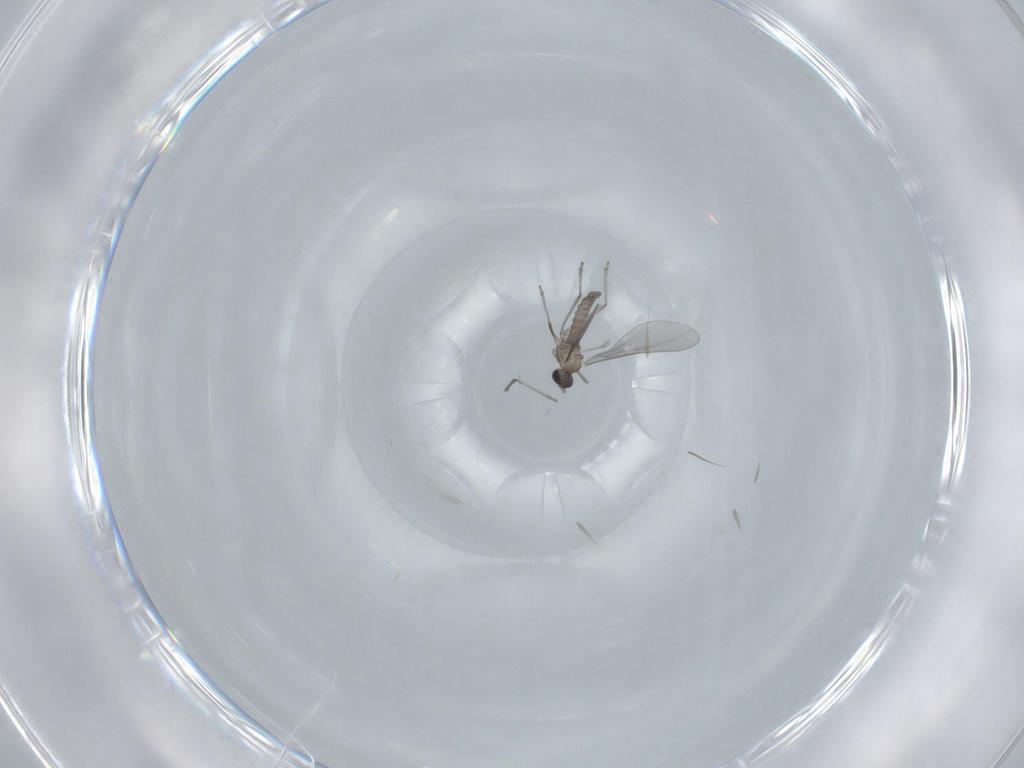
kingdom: Animalia
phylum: Arthropoda
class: Insecta
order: Diptera
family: Cecidomyiidae
